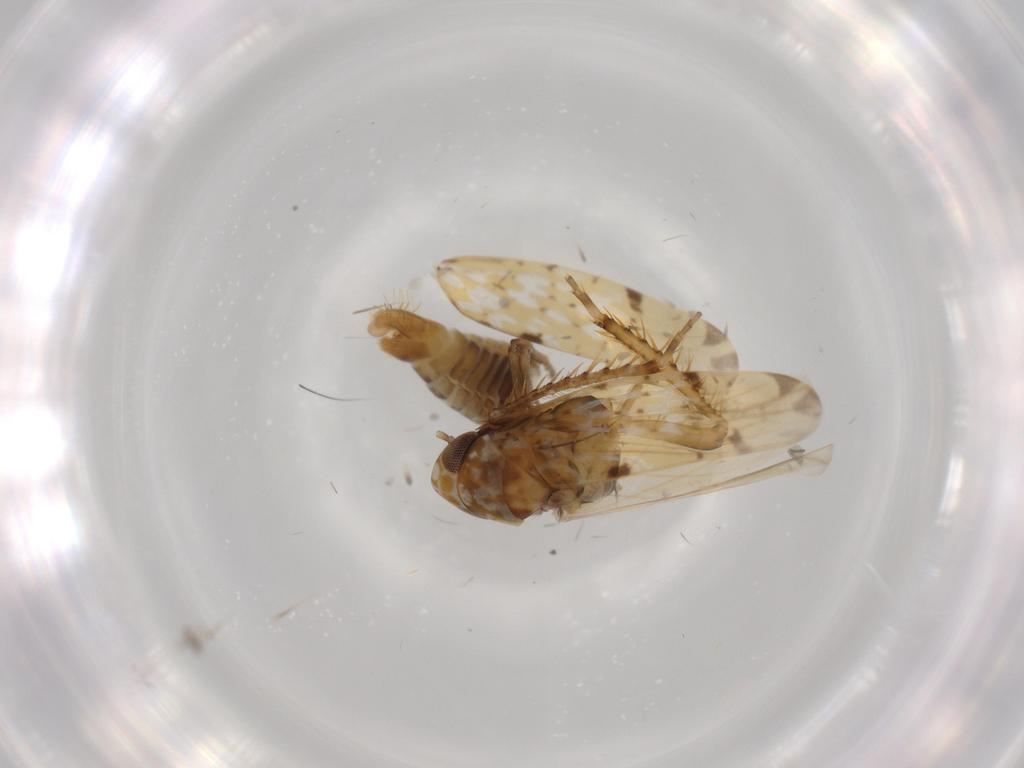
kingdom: Animalia
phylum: Arthropoda
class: Insecta
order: Hemiptera
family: Cicadellidae
